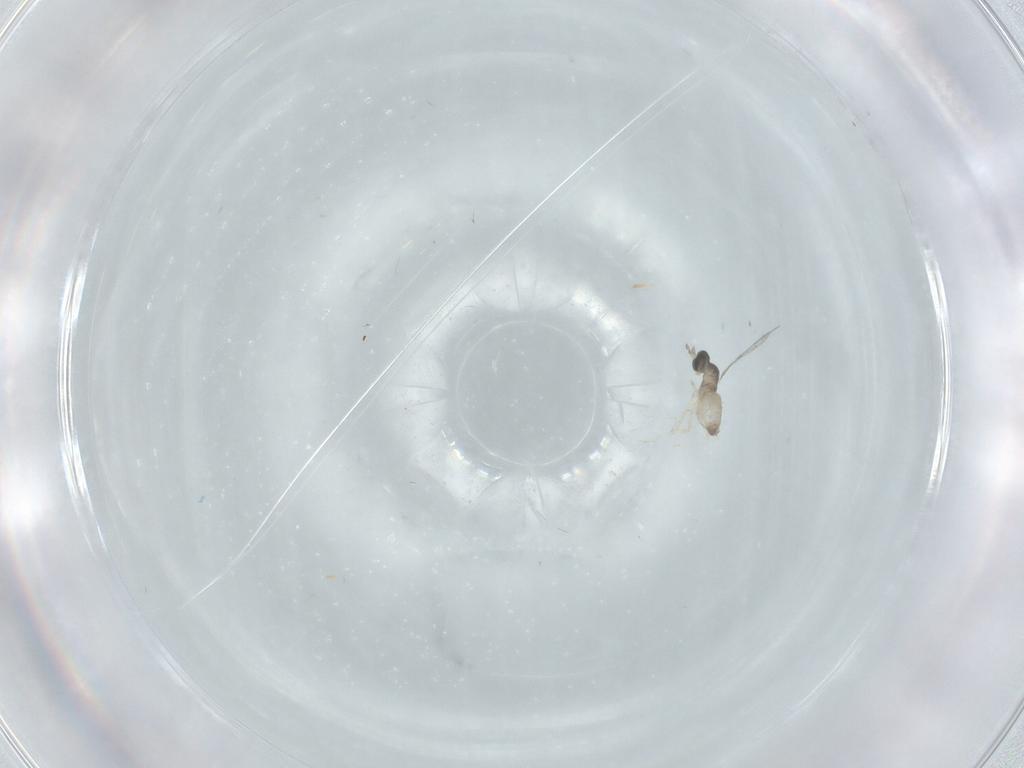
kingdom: Animalia
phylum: Arthropoda
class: Insecta
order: Diptera
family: Cecidomyiidae
